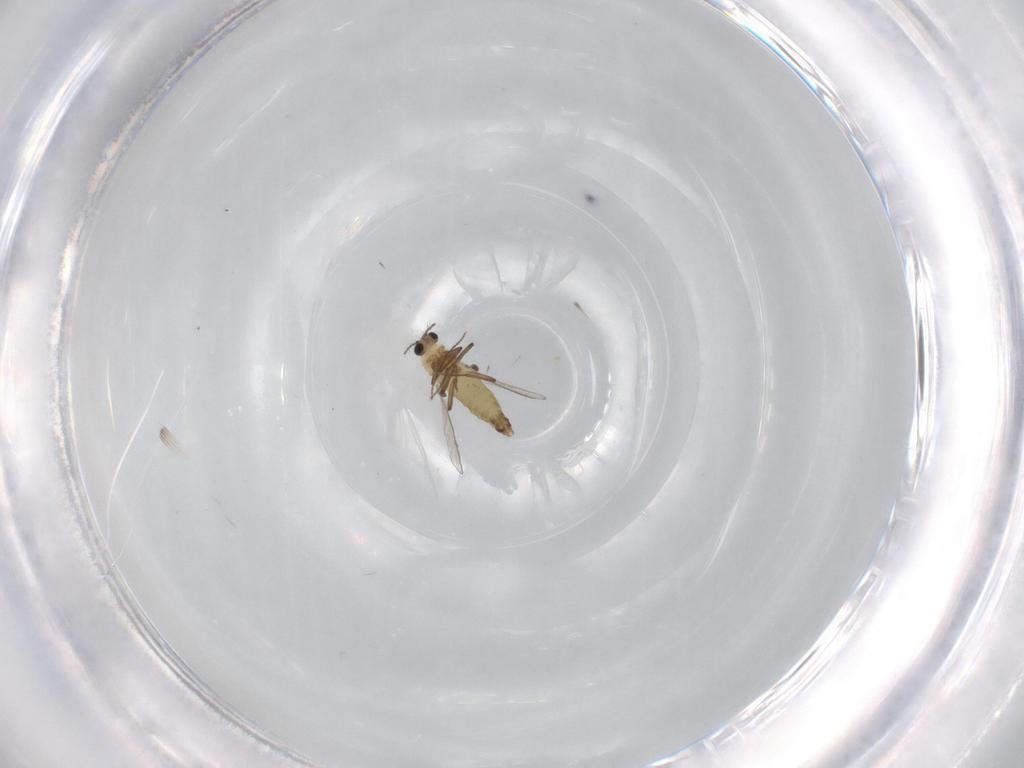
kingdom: Animalia
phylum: Arthropoda
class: Insecta
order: Diptera
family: Chironomidae
